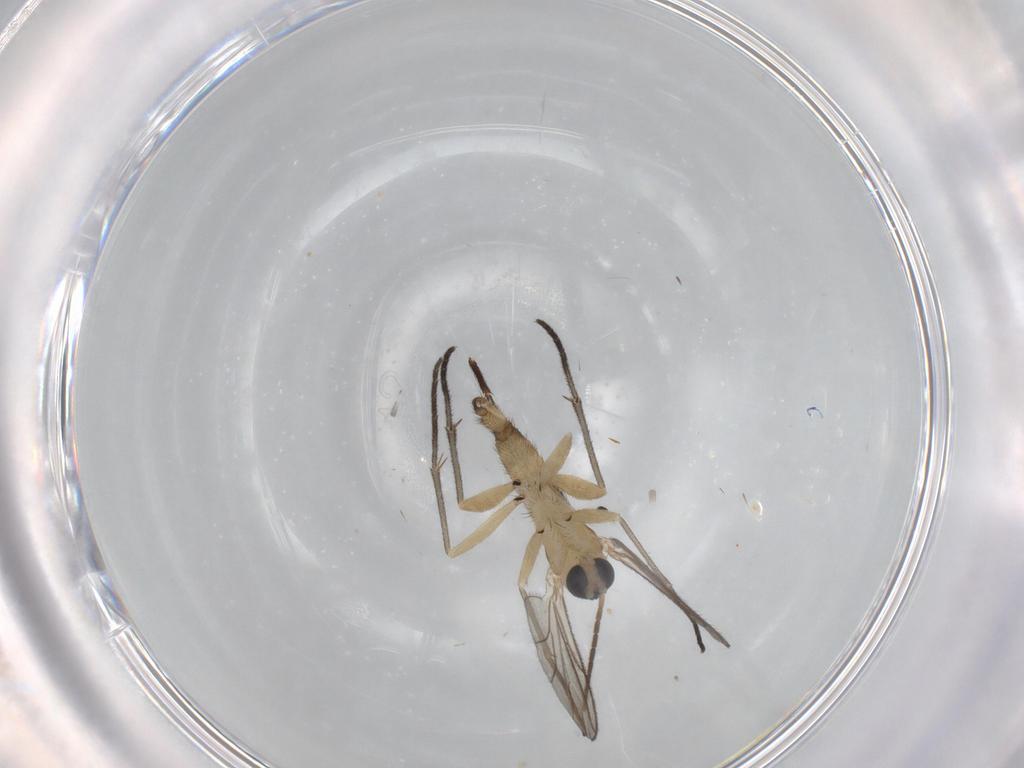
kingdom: Animalia
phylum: Arthropoda
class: Insecta
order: Diptera
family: Sciaridae
